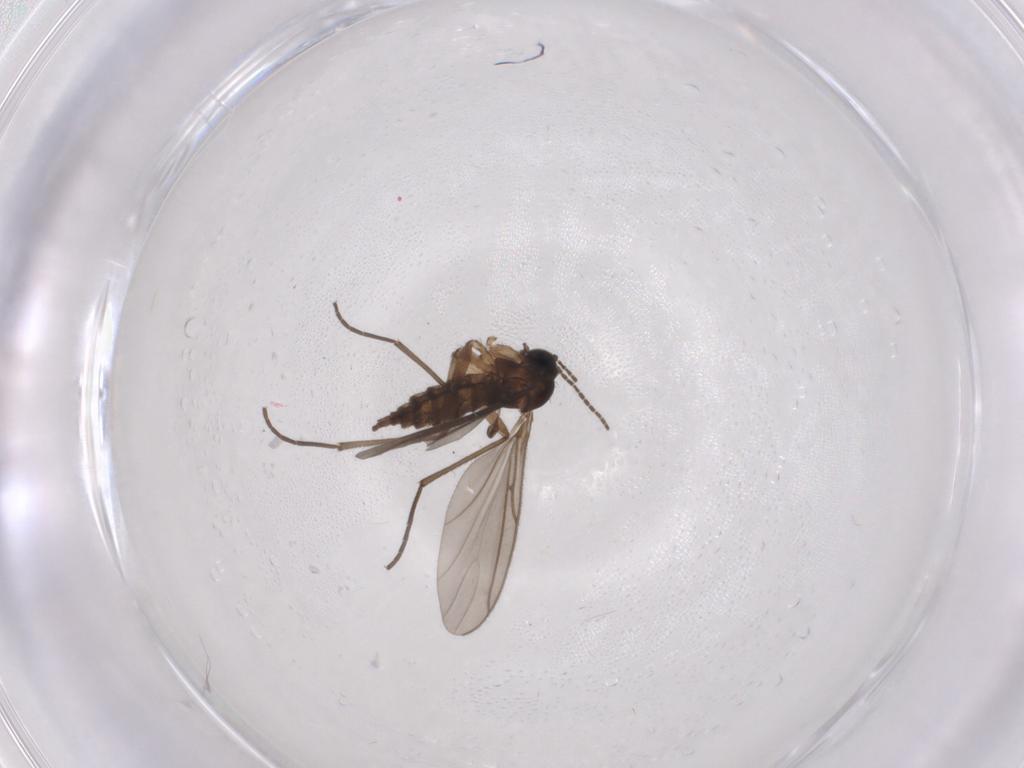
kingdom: Animalia
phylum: Arthropoda
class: Insecta
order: Diptera
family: Sciaridae
